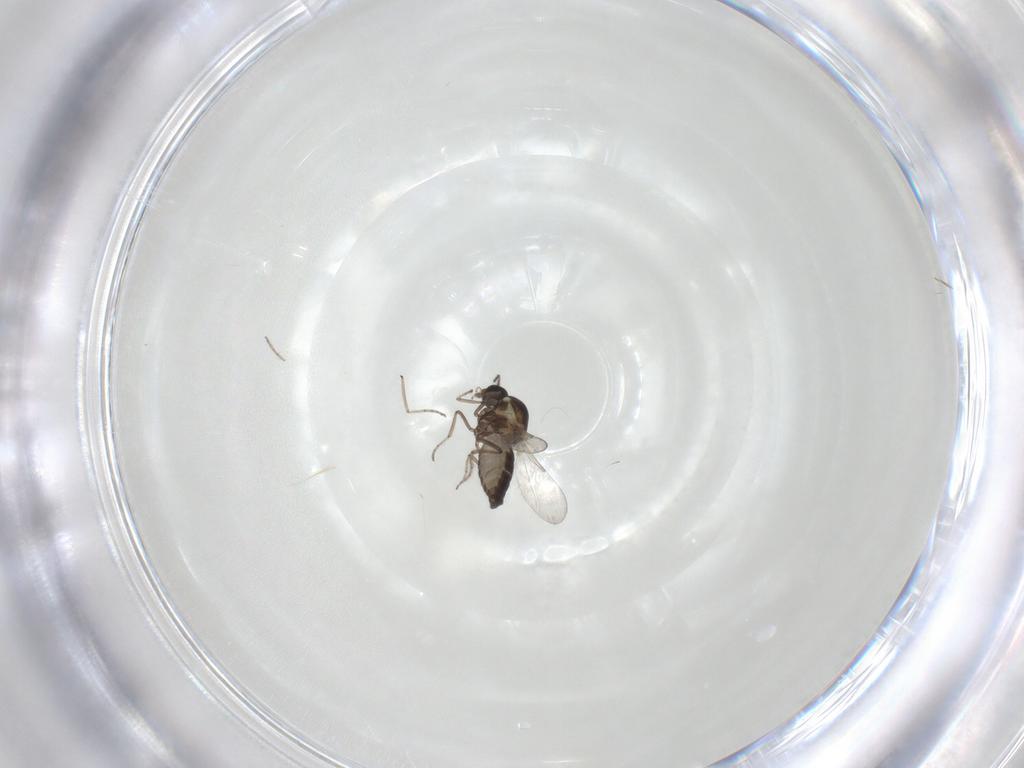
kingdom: Animalia
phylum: Arthropoda
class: Insecta
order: Diptera
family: Ceratopogonidae
